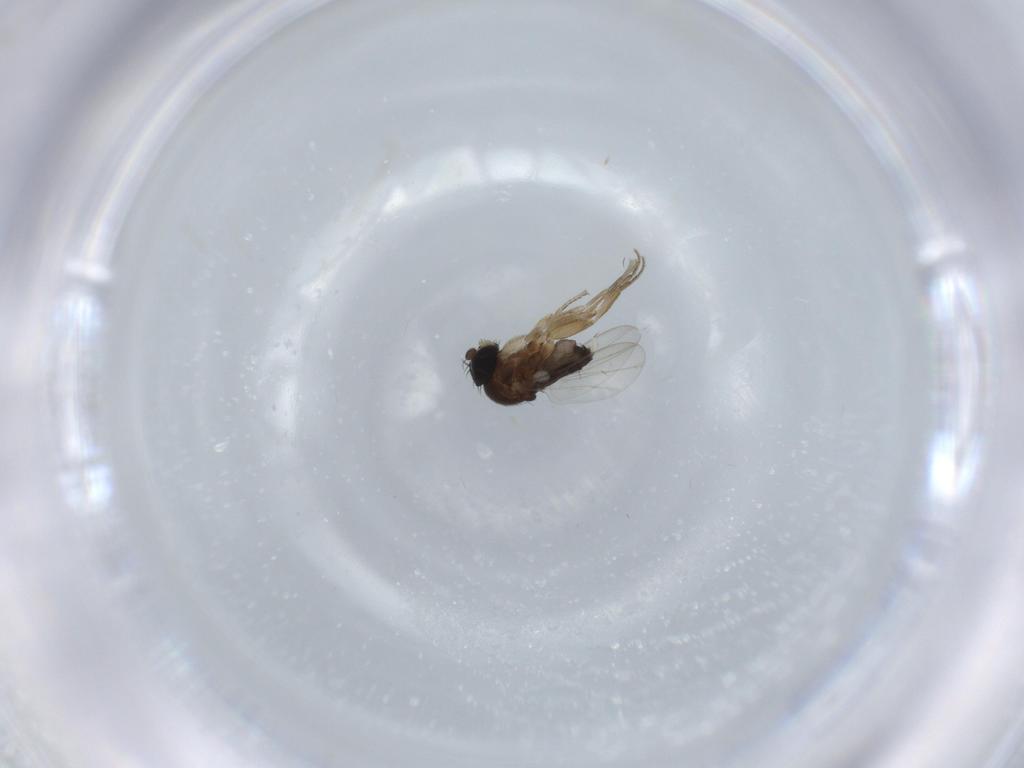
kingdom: Animalia
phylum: Arthropoda
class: Insecta
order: Diptera
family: Phoridae
